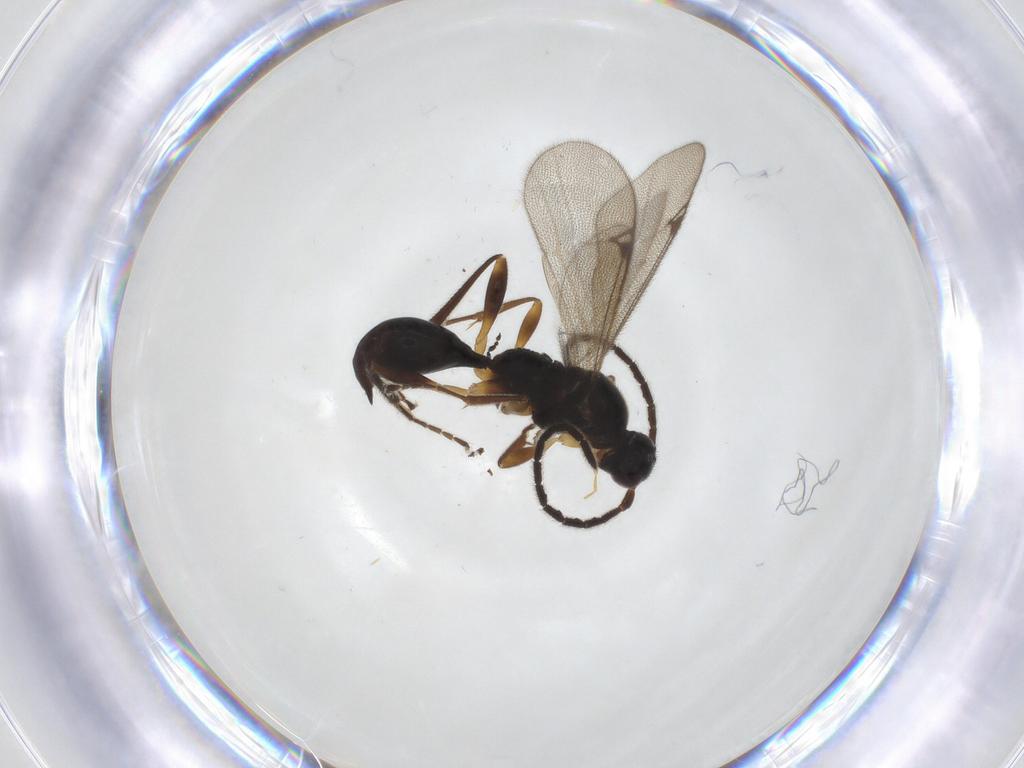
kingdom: Animalia
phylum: Arthropoda
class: Insecta
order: Hymenoptera
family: Proctotrupidae
